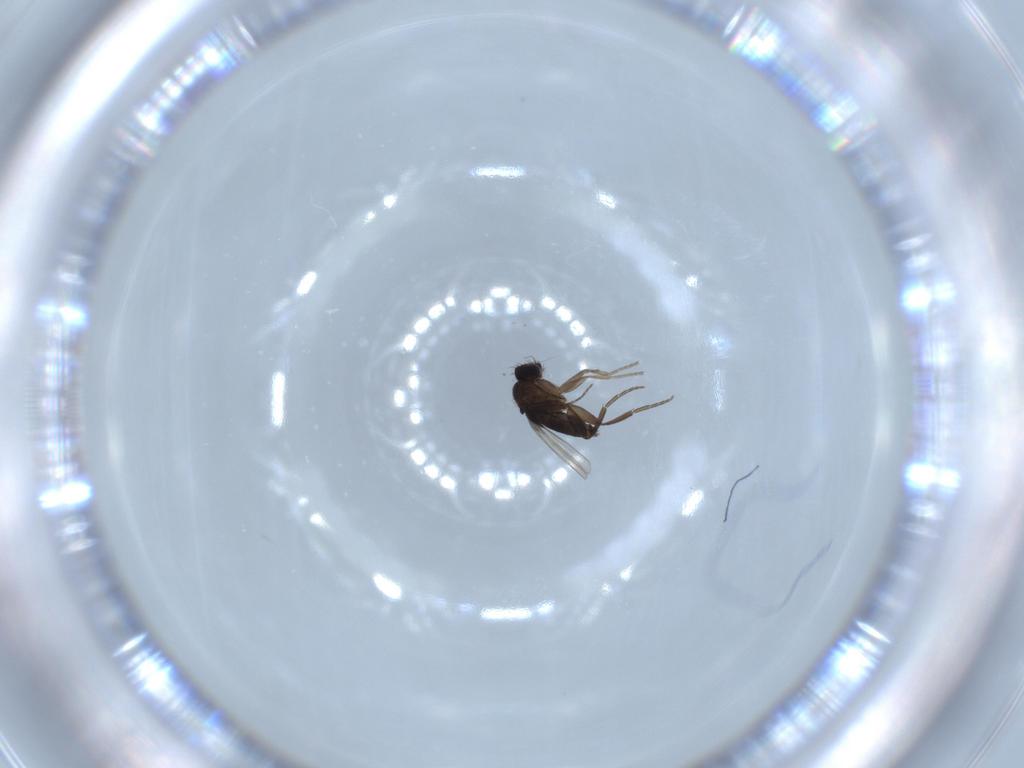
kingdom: Animalia
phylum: Arthropoda
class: Insecta
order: Diptera
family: Phoridae
